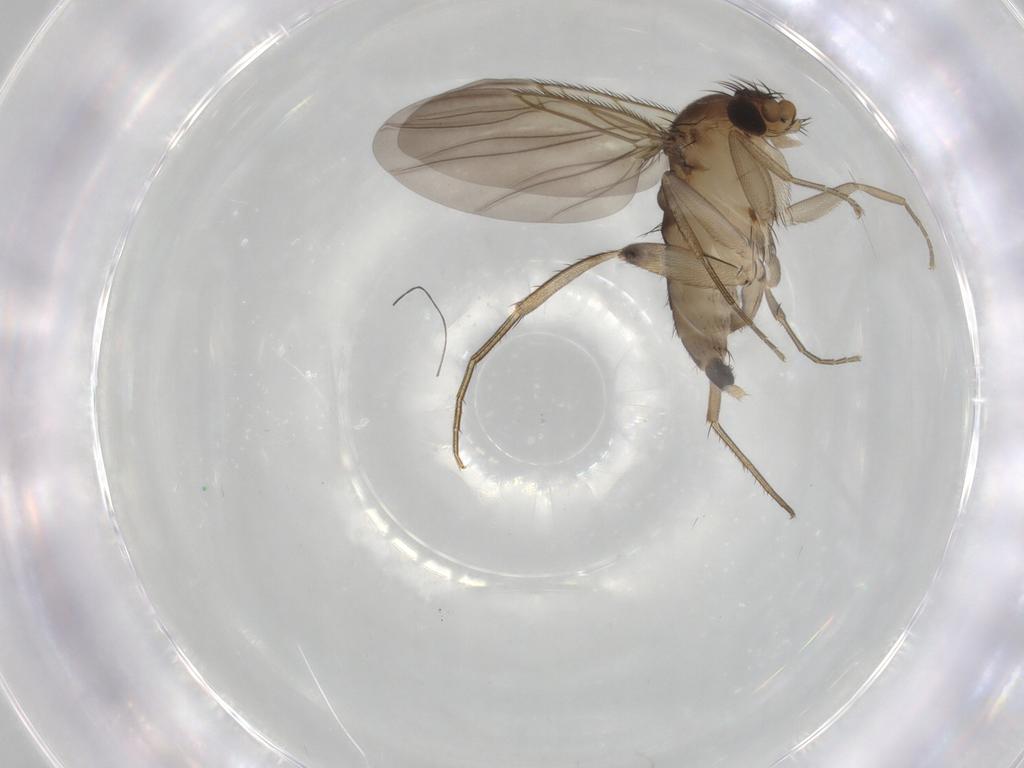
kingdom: Animalia
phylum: Arthropoda
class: Insecta
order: Diptera
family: Phoridae
